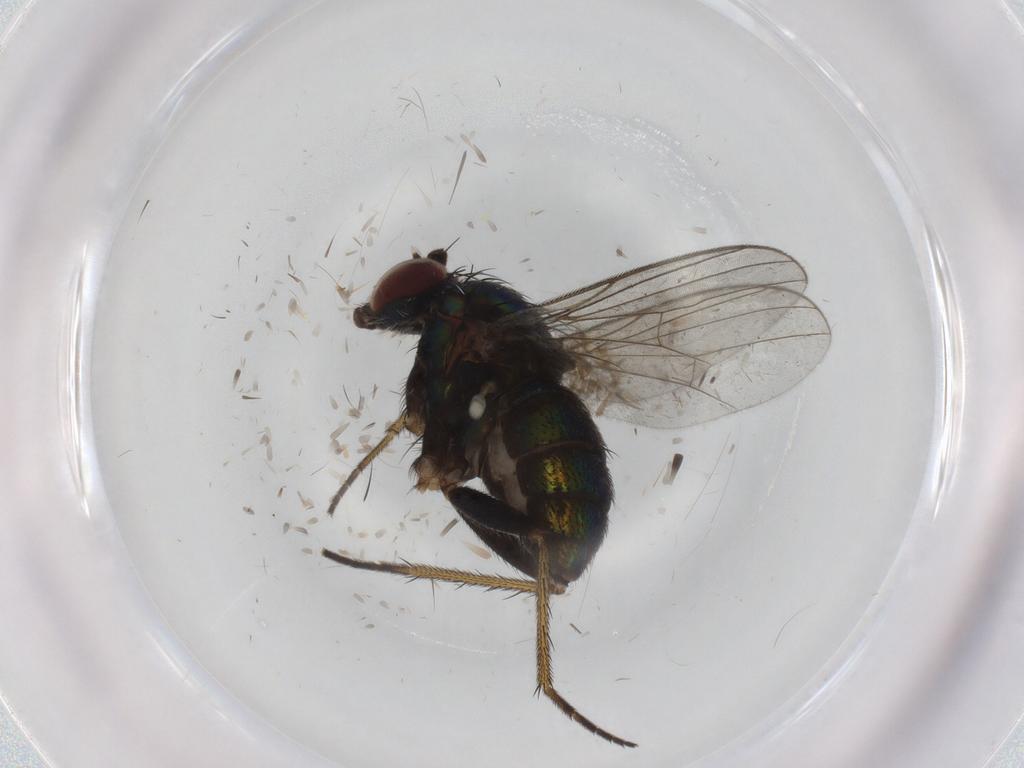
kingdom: Animalia
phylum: Arthropoda
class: Insecta
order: Diptera
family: Dolichopodidae
